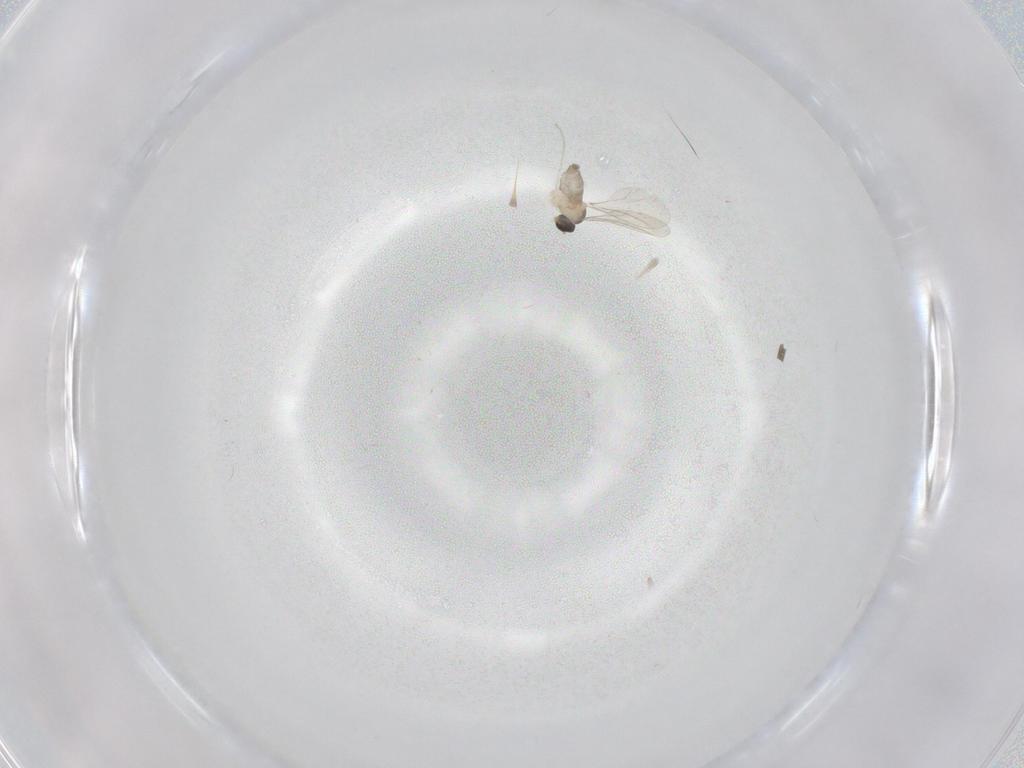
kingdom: Animalia
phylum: Arthropoda
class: Insecta
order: Diptera
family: Cecidomyiidae
